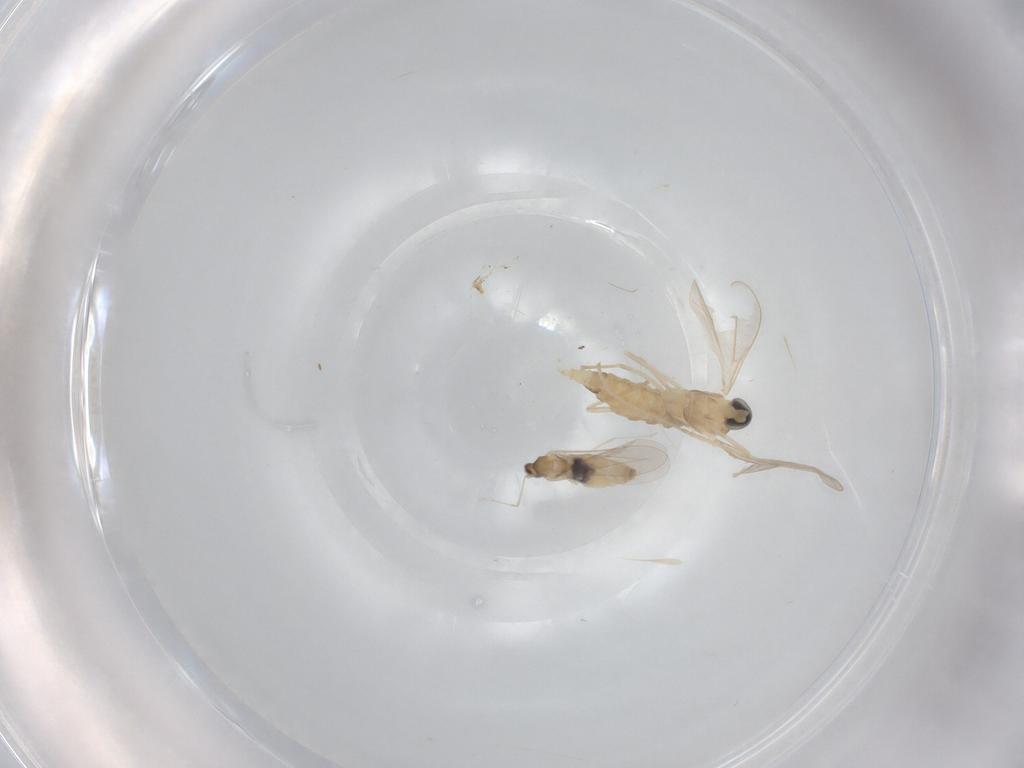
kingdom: Animalia
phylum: Arthropoda
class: Insecta
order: Diptera
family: Cecidomyiidae
